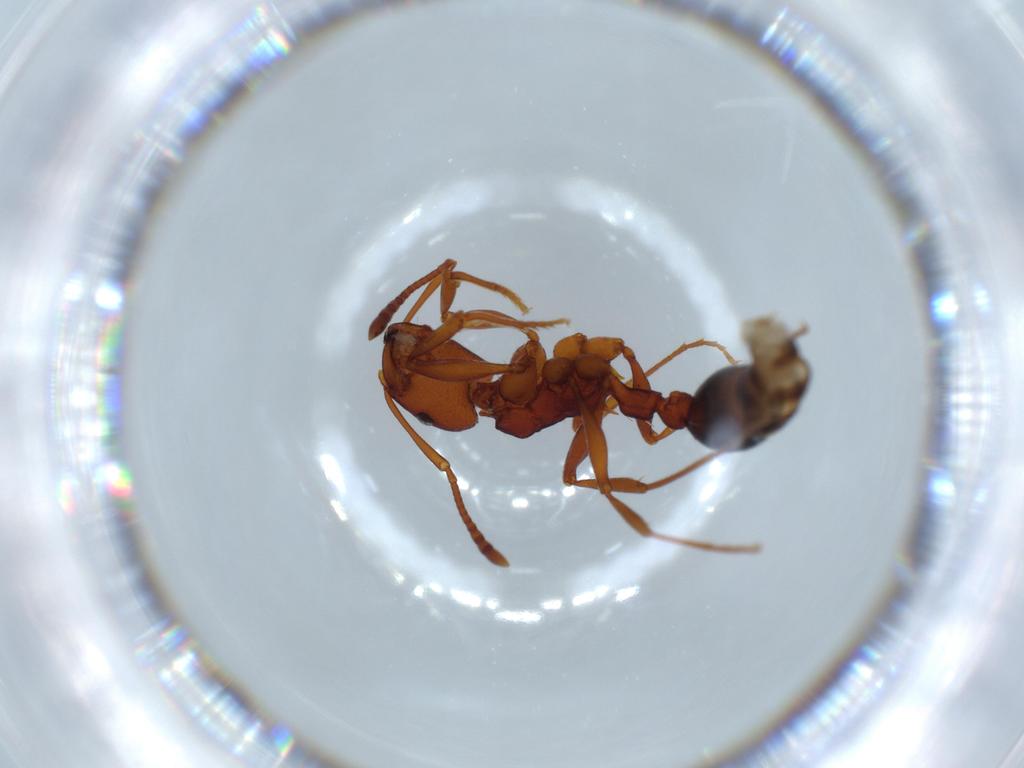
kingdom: Animalia
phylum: Arthropoda
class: Insecta
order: Hymenoptera
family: Formicidae
